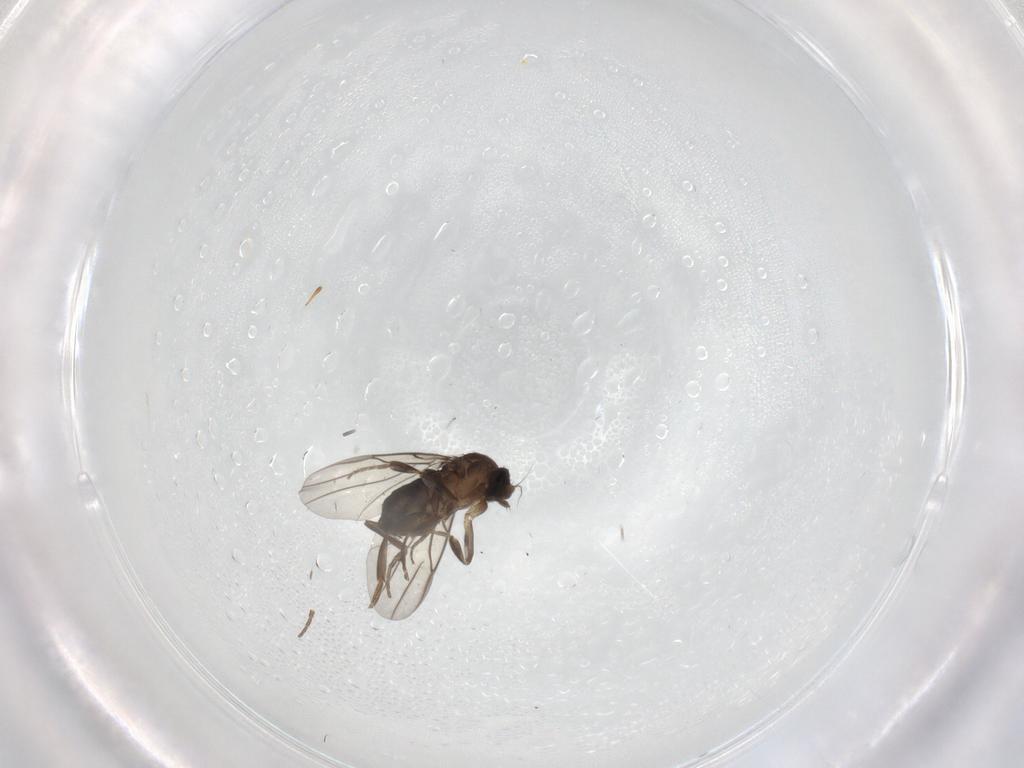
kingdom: Animalia
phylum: Arthropoda
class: Insecta
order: Diptera
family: Phoridae
